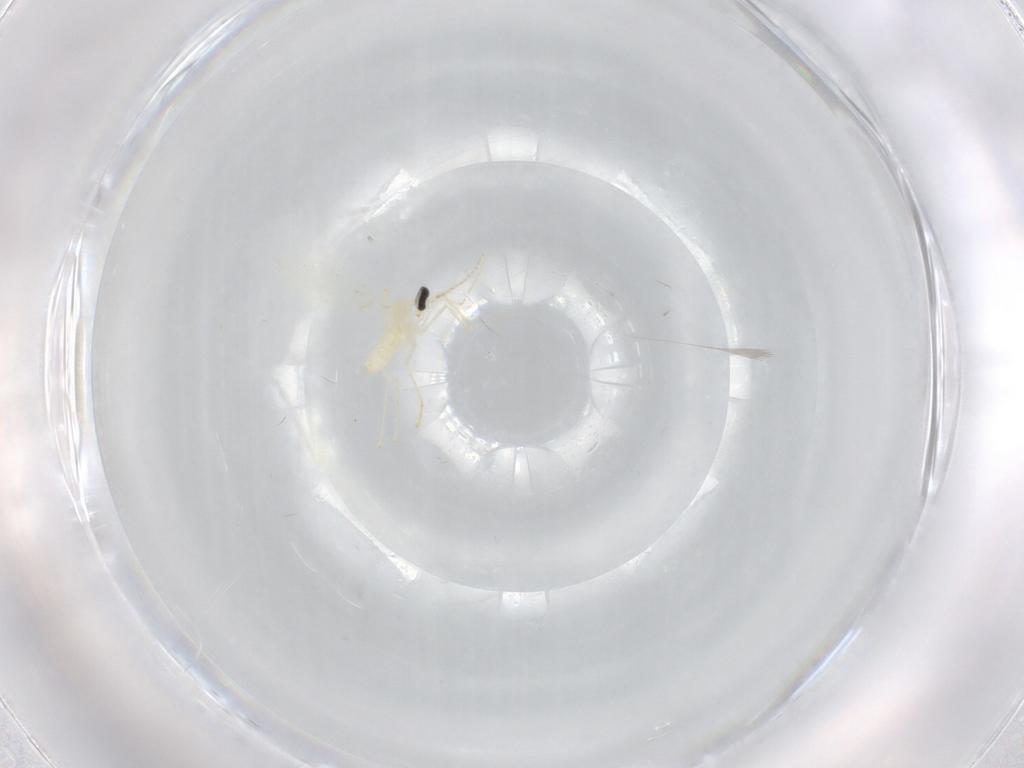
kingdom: Animalia
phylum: Arthropoda
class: Insecta
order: Diptera
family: Cecidomyiidae
